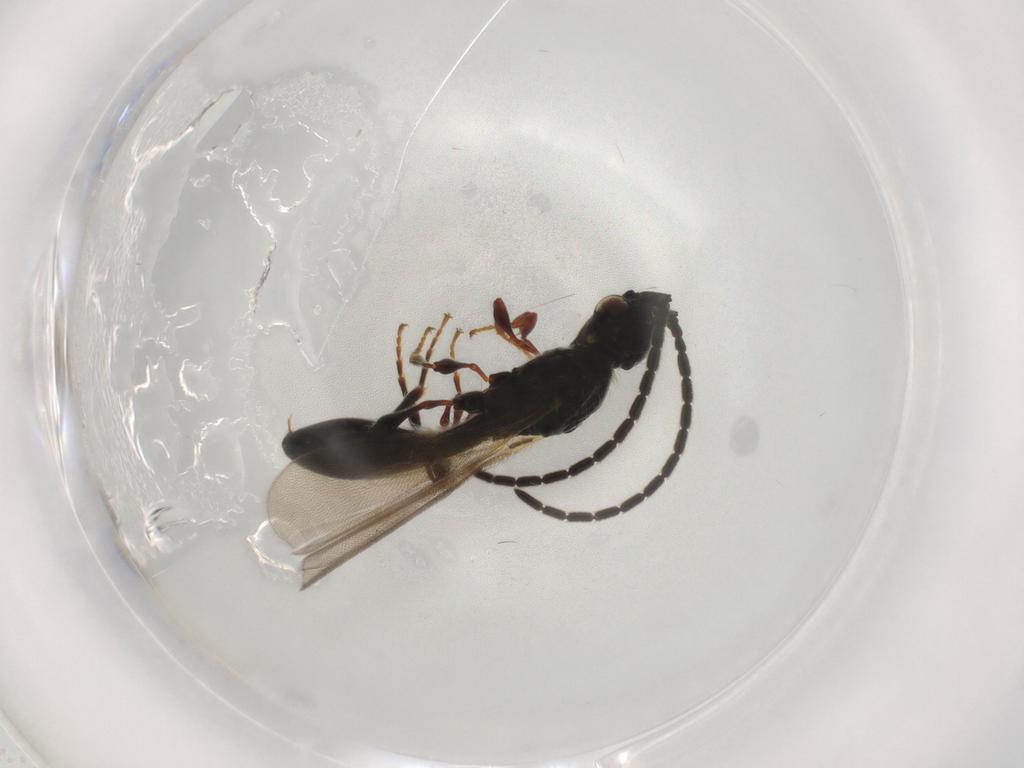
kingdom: Animalia
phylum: Arthropoda
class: Insecta
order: Hymenoptera
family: Diapriidae
